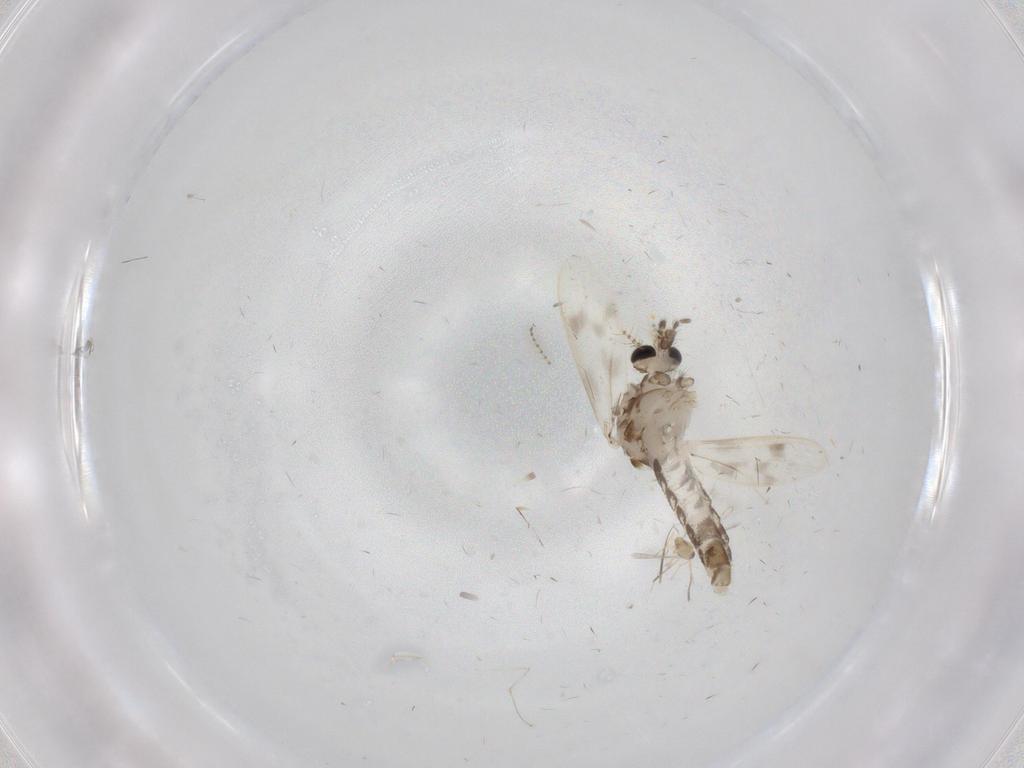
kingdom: Animalia
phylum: Arthropoda
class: Insecta
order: Diptera
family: Corethrellidae
